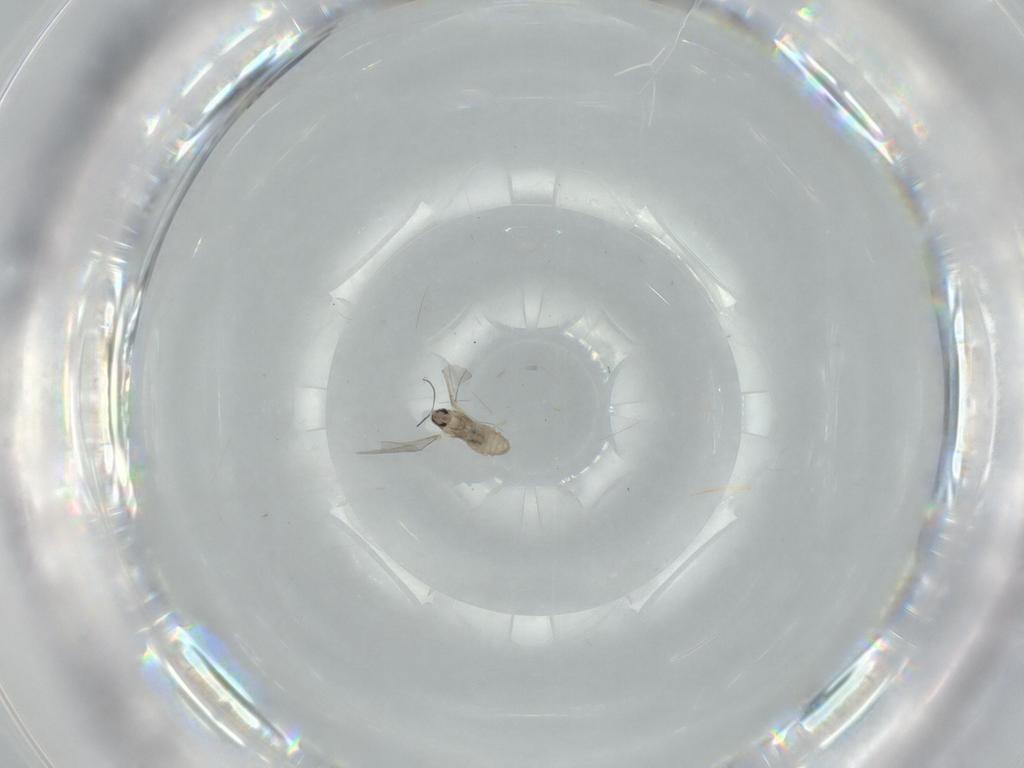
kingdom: Animalia
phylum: Arthropoda
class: Insecta
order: Diptera
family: Cecidomyiidae
